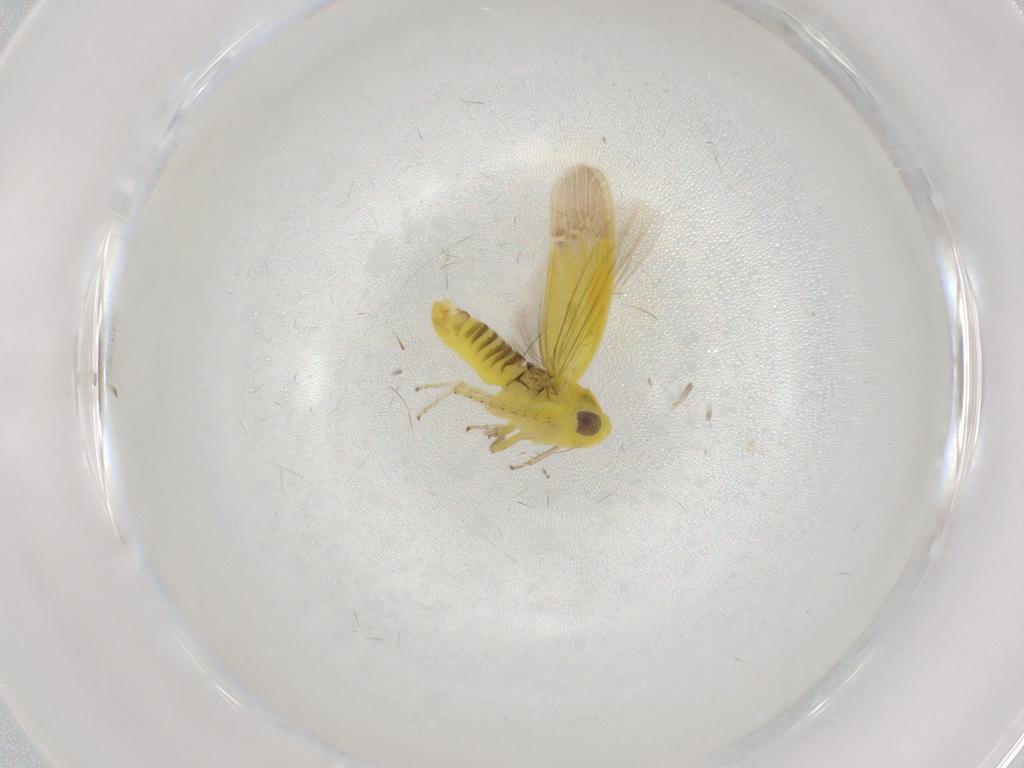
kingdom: Animalia
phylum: Arthropoda
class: Insecta
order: Hemiptera
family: Cicadellidae
